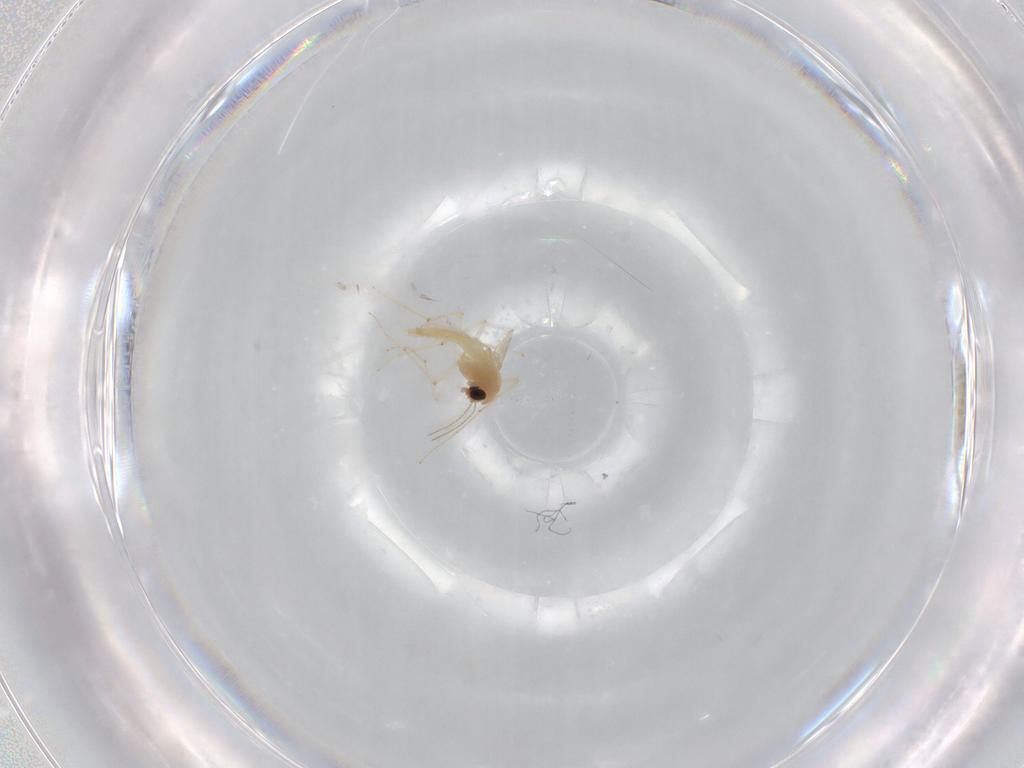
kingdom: Animalia
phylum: Arthropoda
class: Insecta
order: Diptera
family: Chironomidae
